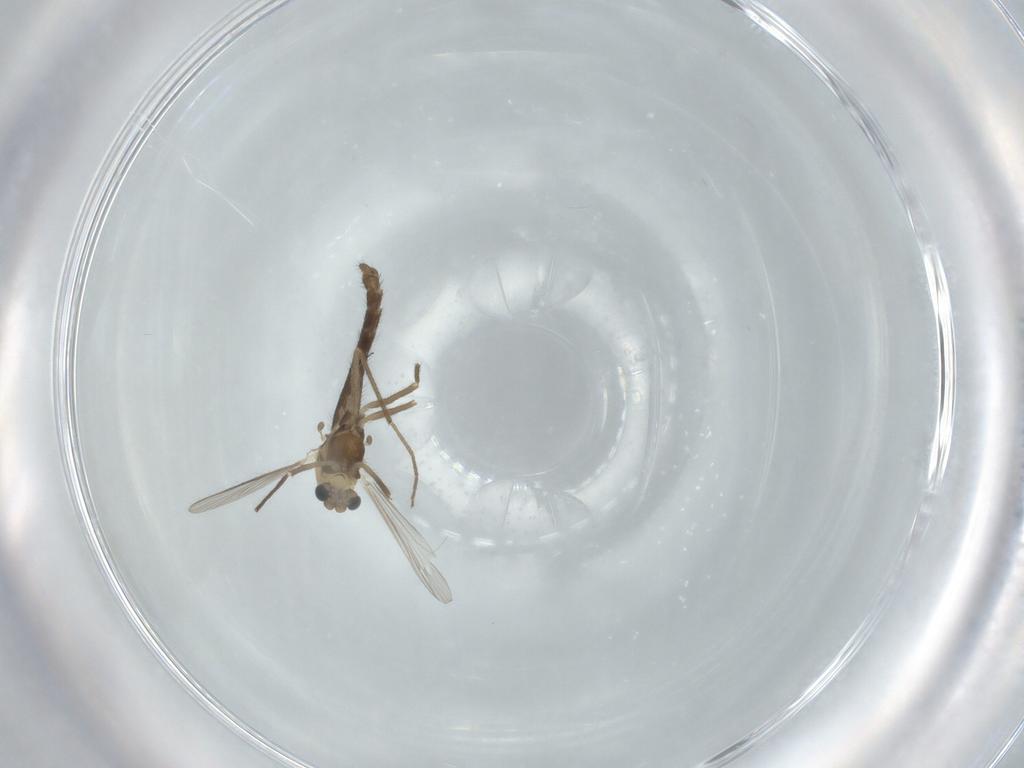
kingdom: Animalia
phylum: Arthropoda
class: Insecta
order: Diptera
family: Chironomidae
